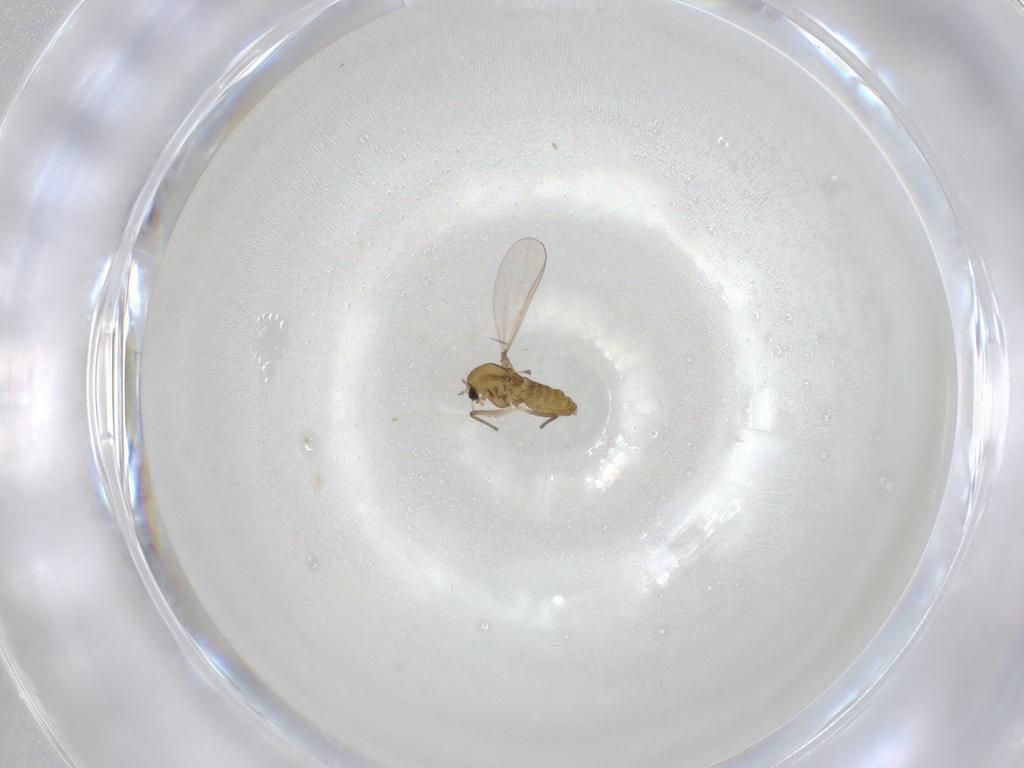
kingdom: Animalia
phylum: Arthropoda
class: Insecta
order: Diptera
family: Chironomidae
